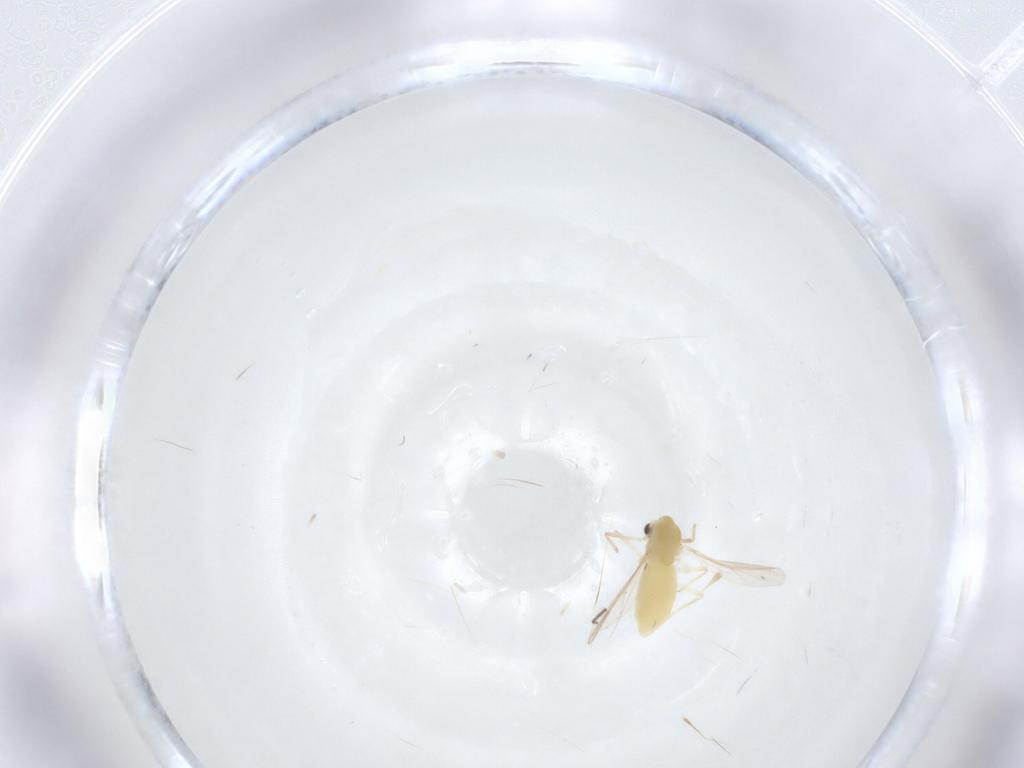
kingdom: Animalia
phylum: Arthropoda
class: Insecta
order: Diptera
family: Chironomidae
